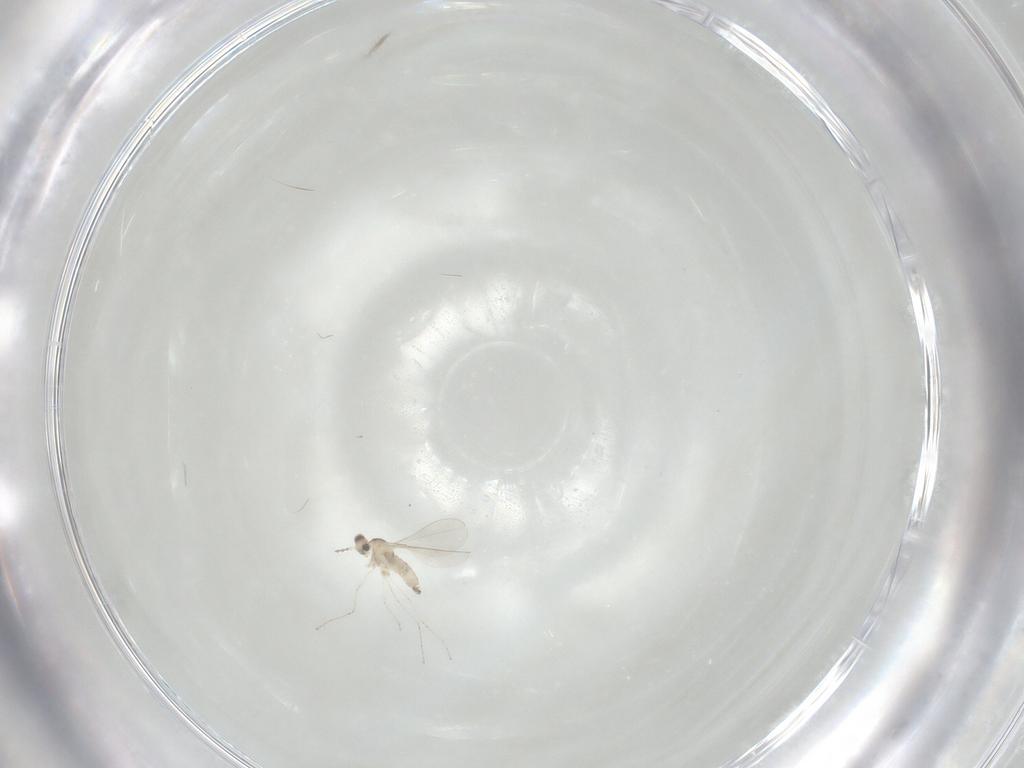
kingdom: Animalia
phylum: Arthropoda
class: Insecta
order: Diptera
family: Cecidomyiidae
